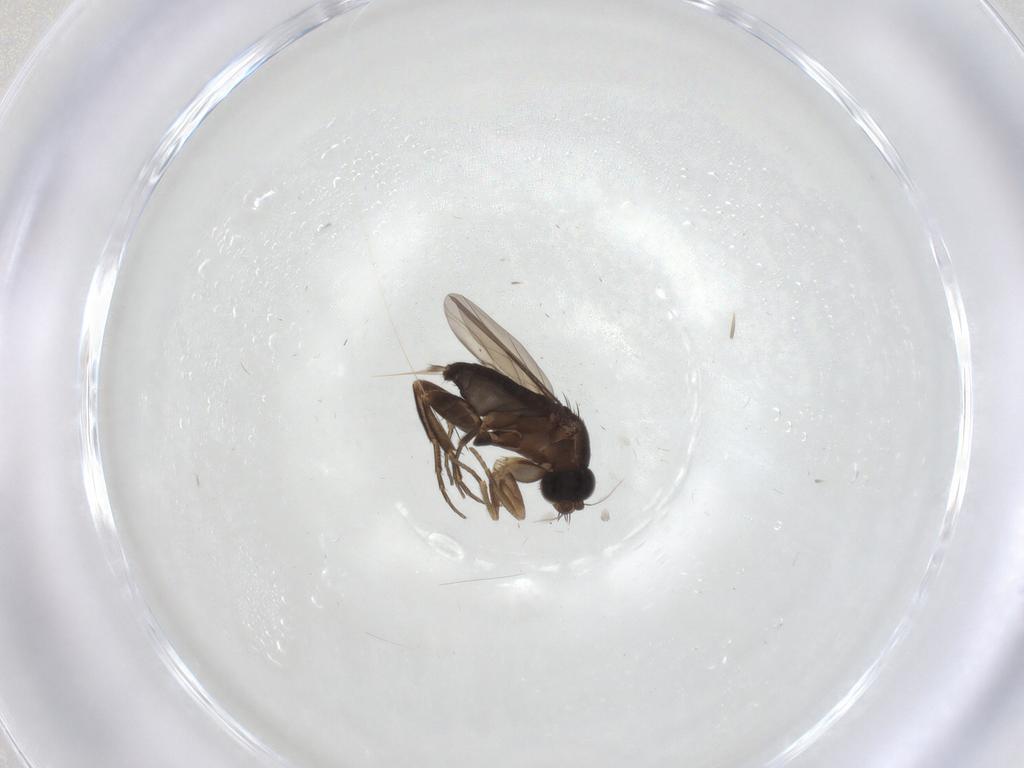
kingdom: Animalia
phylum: Arthropoda
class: Insecta
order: Diptera
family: Phoridae
